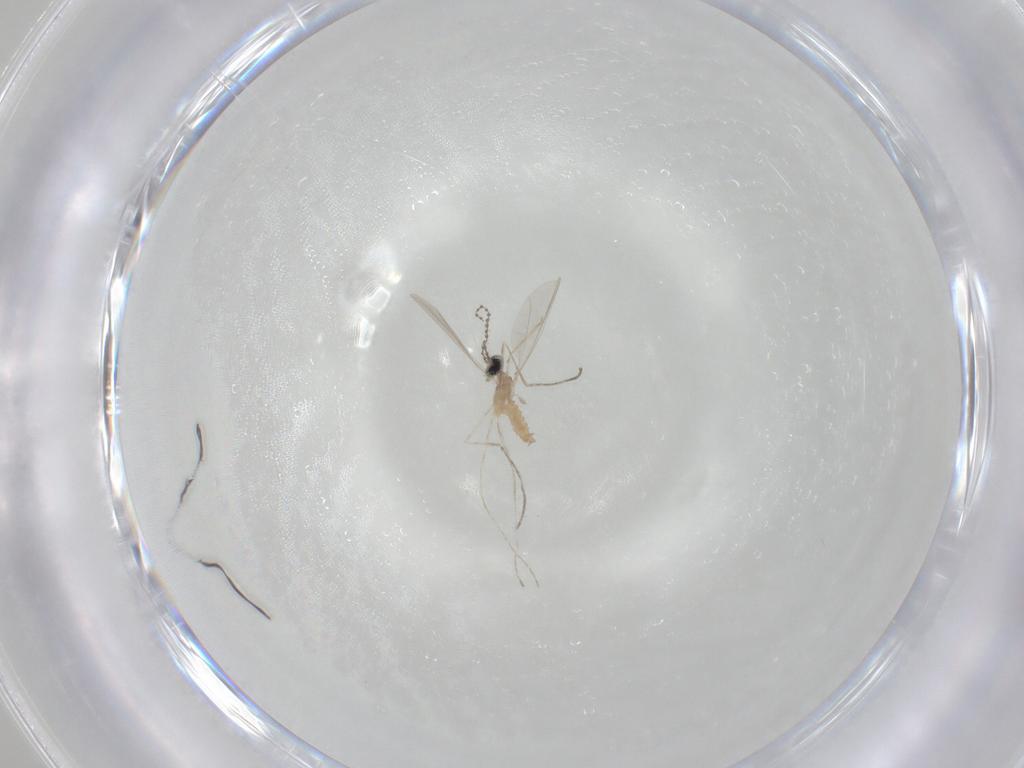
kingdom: Animalia
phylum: Arthropoda
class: Insecta
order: Diptera
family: Cecidomyiidae
